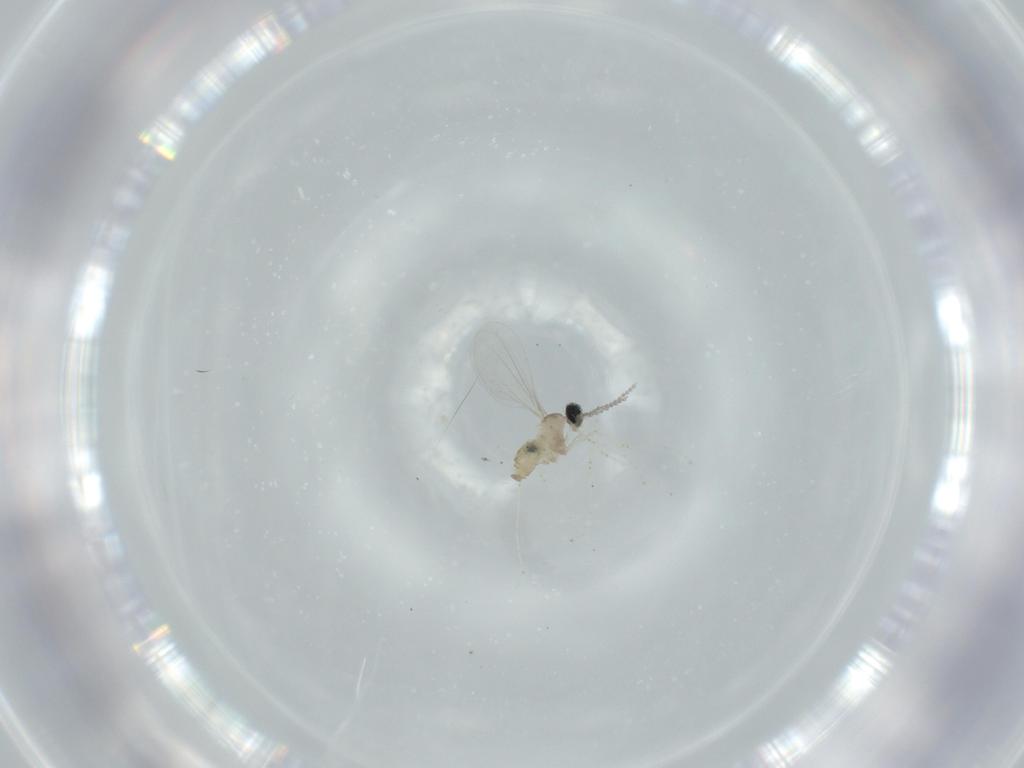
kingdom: Animalia
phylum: Arthropoda
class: Insecta
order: Diptera
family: Cecidomyiidae
